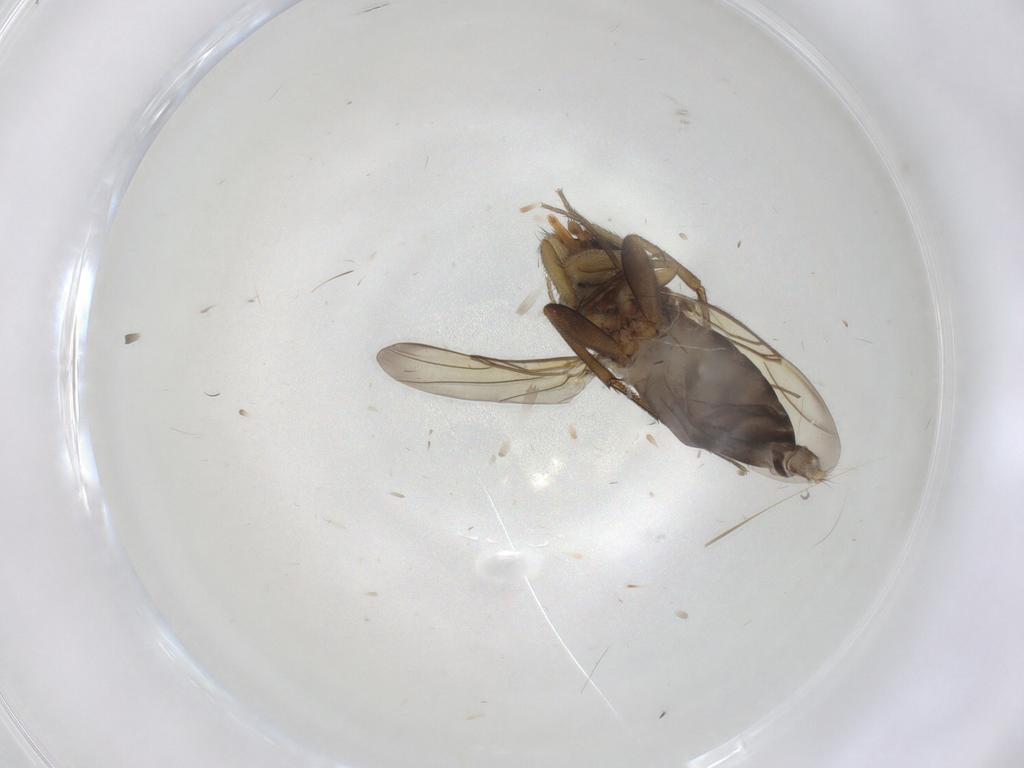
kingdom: Animalia
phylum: Arthropoda
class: Insecta
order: Diptera
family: Phoridae
